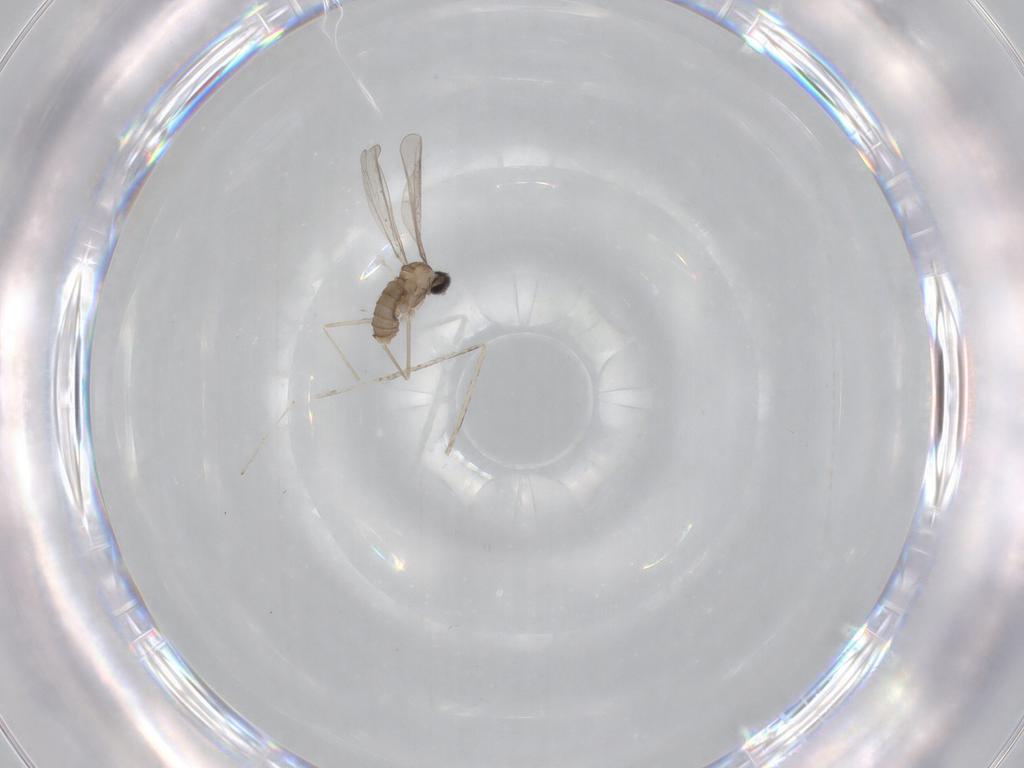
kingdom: Animalia
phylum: Arthropoda
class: Insecta
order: Diptera
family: Cecidomyiidae
